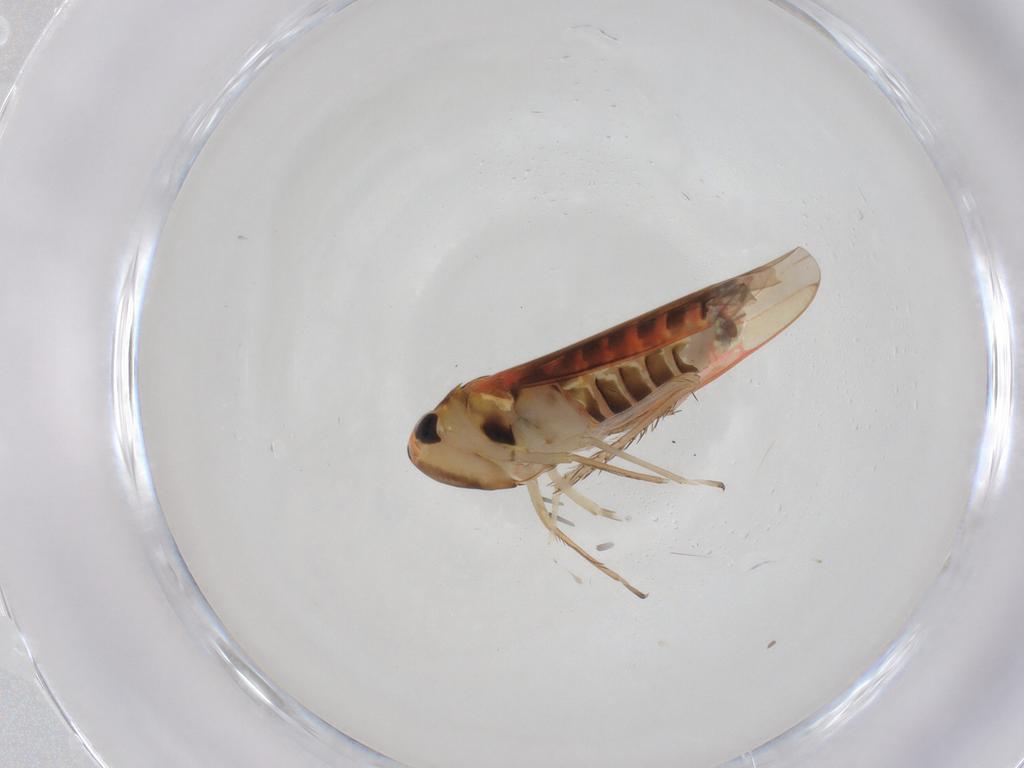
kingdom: Animalia
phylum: Arthropoda
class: Insecta
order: Hemiptera
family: Cicadellidae
